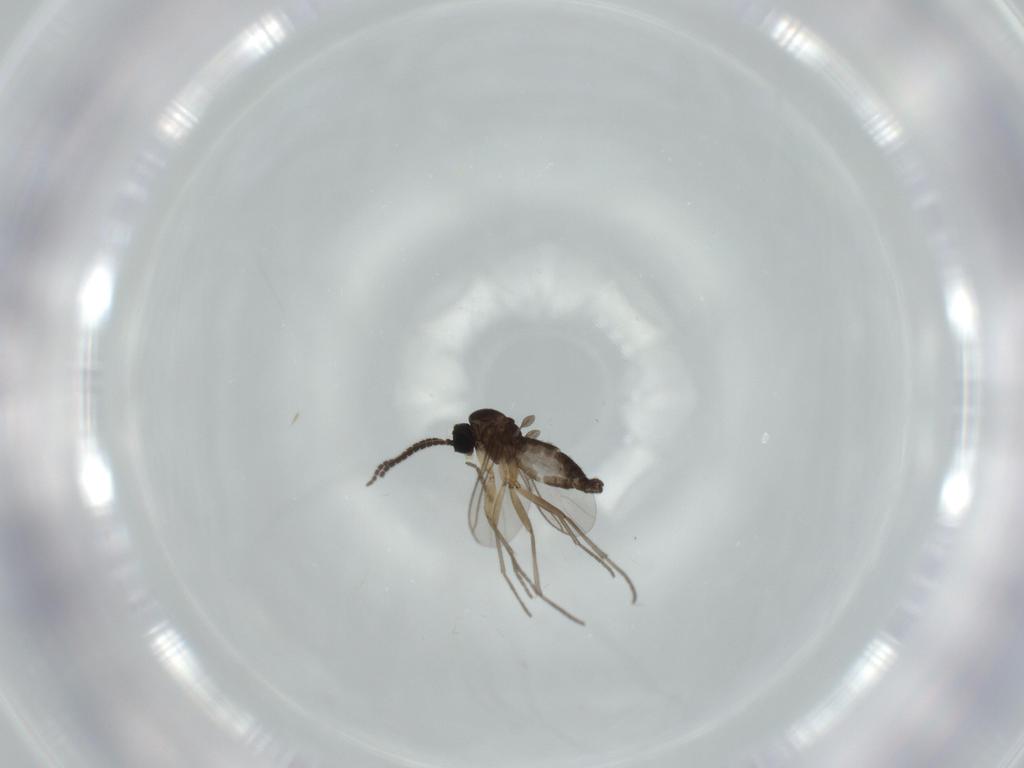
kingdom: Animalia
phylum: Arthropoda
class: Insecta
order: Diptera
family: Sciaridae
